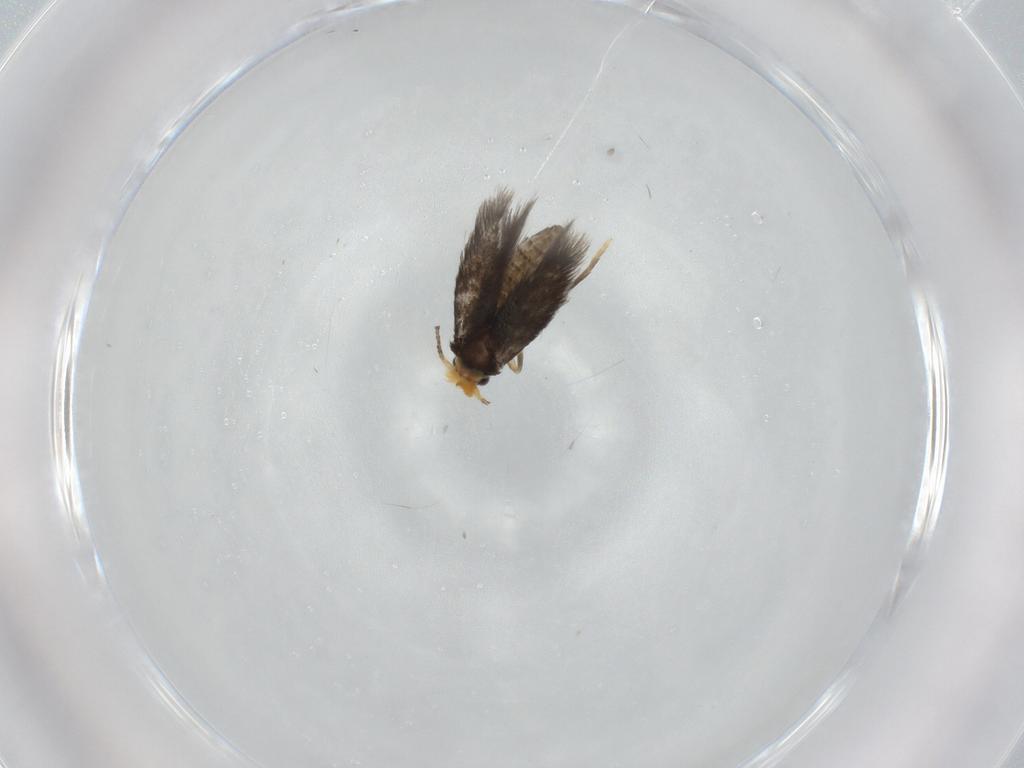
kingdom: Animalia
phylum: Arthropoda
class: Insecta
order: Lepidoptera
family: Nepticulidae
